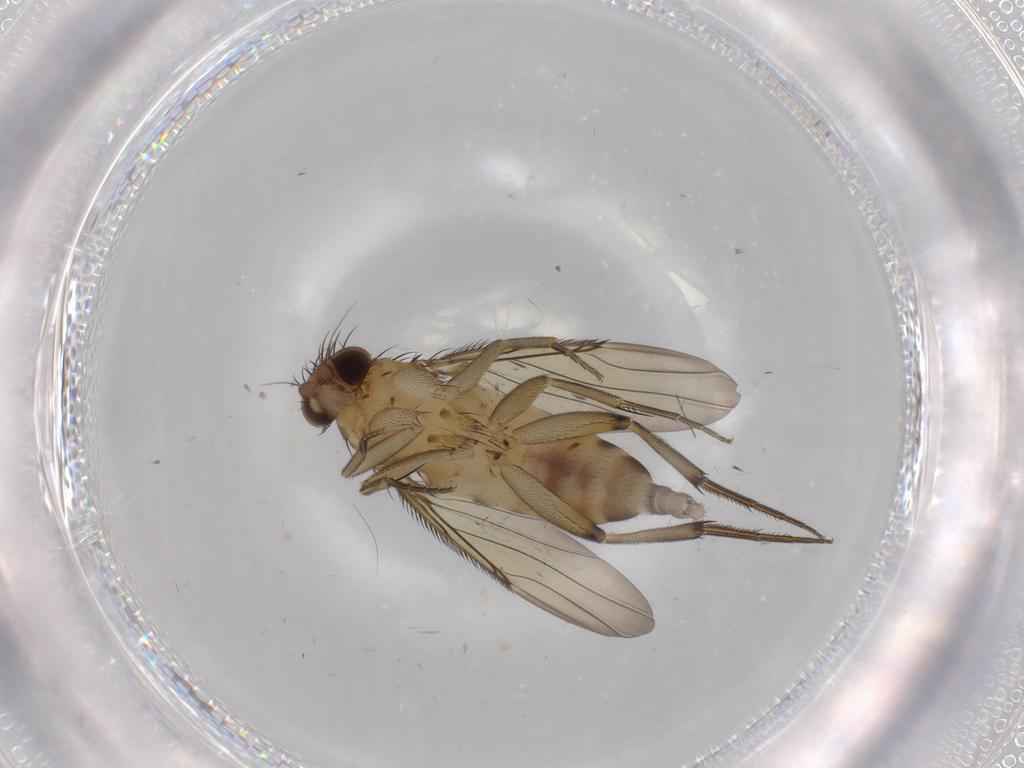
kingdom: Animalia
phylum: Arthropoda
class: Insecta
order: Diptera
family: Phoridae
